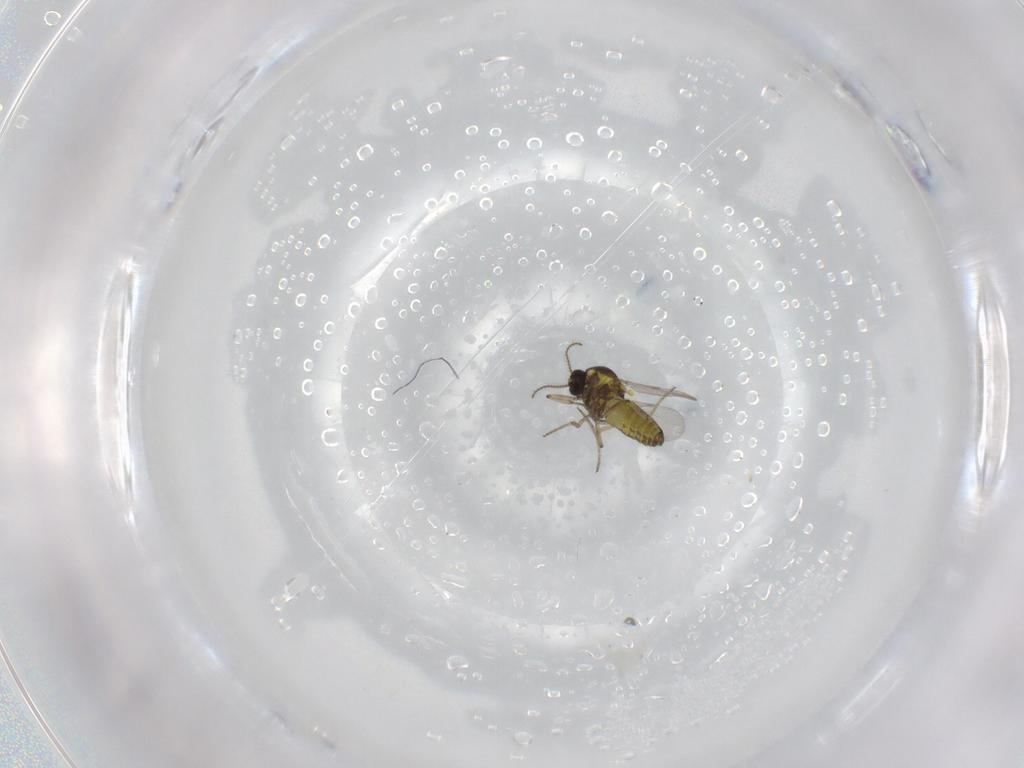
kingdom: Animalia
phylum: Arthropoda
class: Insecta
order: Diptera
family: Ceratopogonidae
